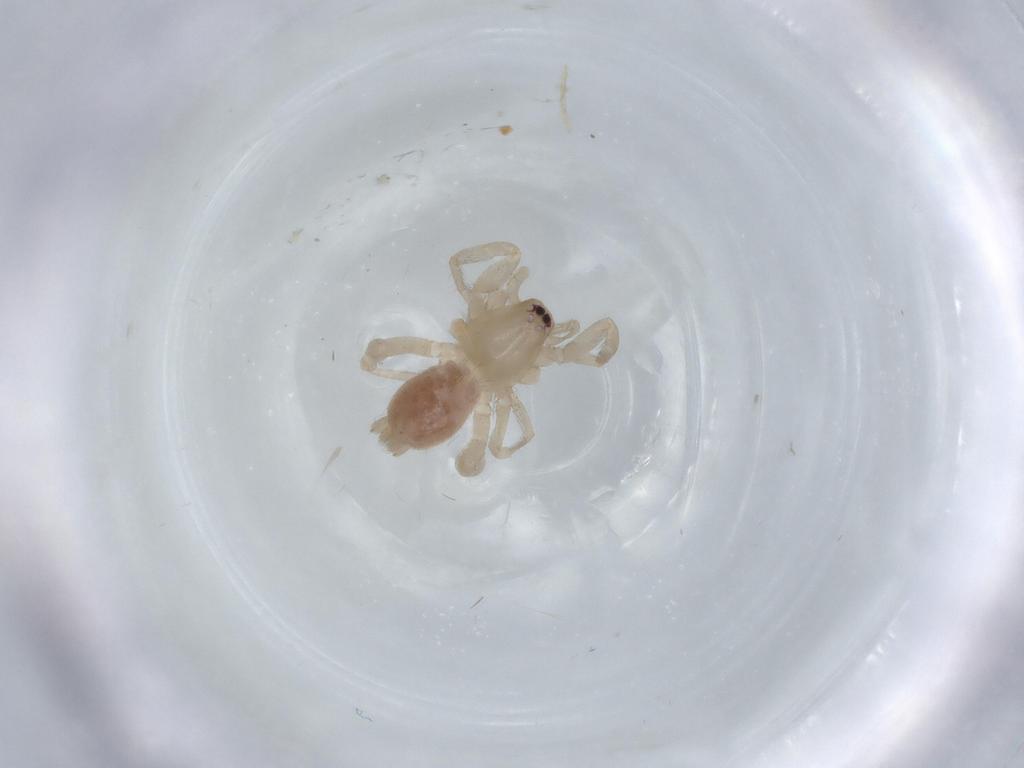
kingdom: Animalia
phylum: Arthropoda
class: Arachnida
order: Araneae
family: Gnaphosidae
